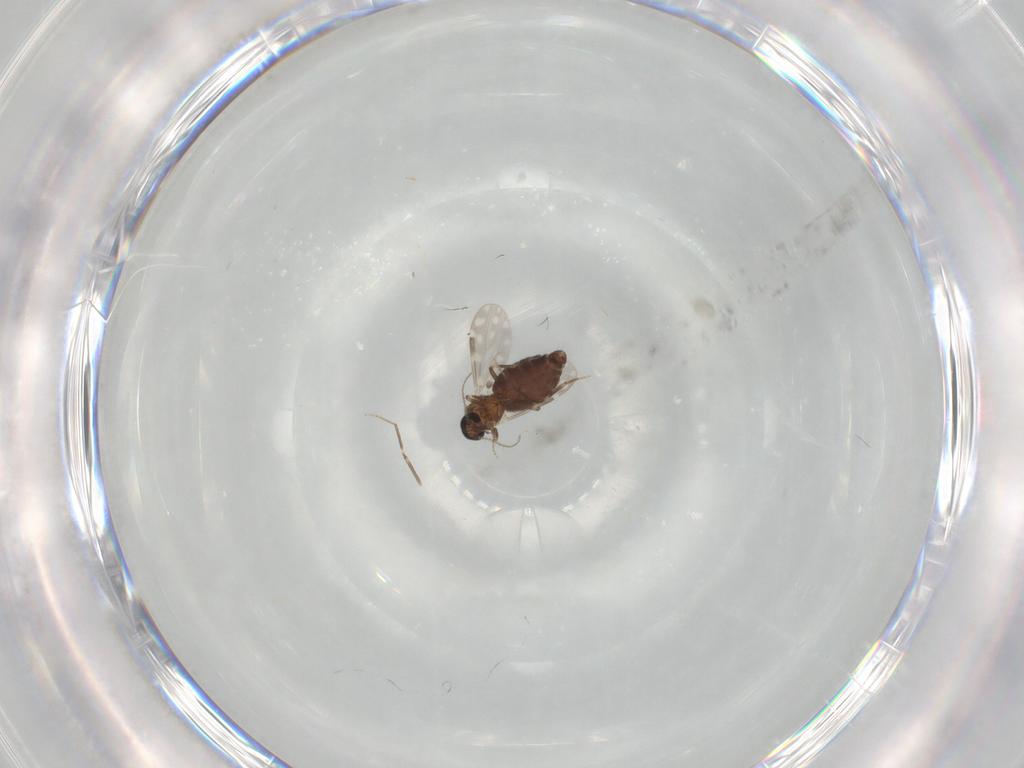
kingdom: Animalia
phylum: Arthropoda
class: Insecta
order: Diptera
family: Ceratopogonidae
